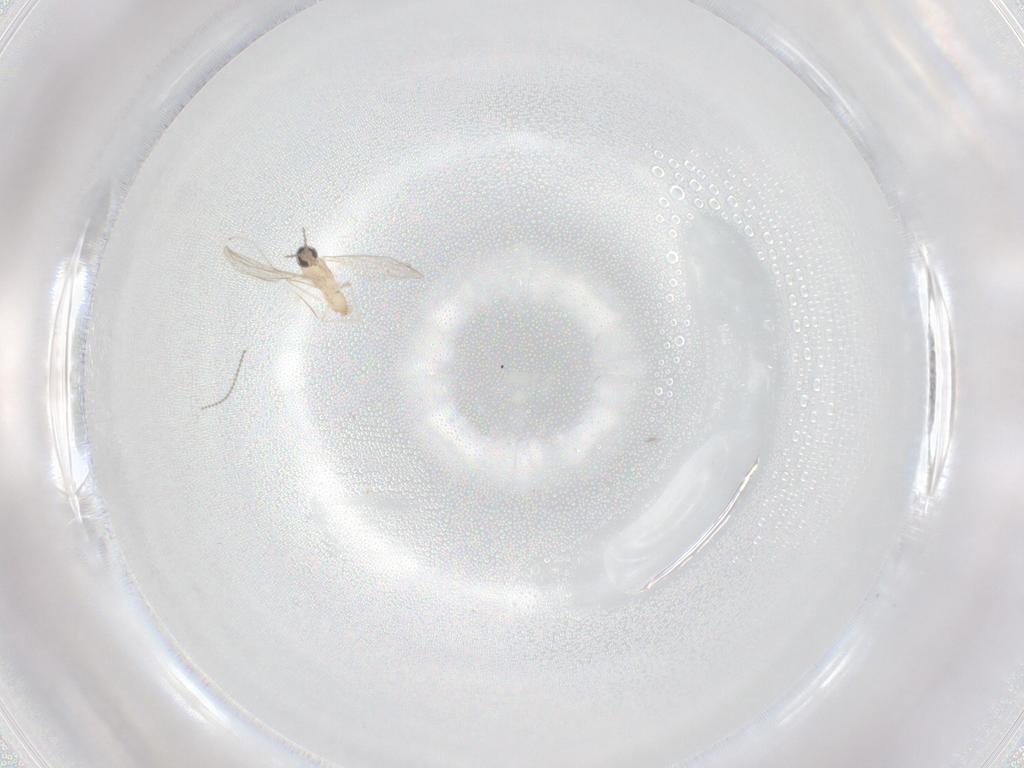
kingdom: Animalia
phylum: Arthropoda
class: Insecta
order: Diptera
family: Cecidomyiidae
